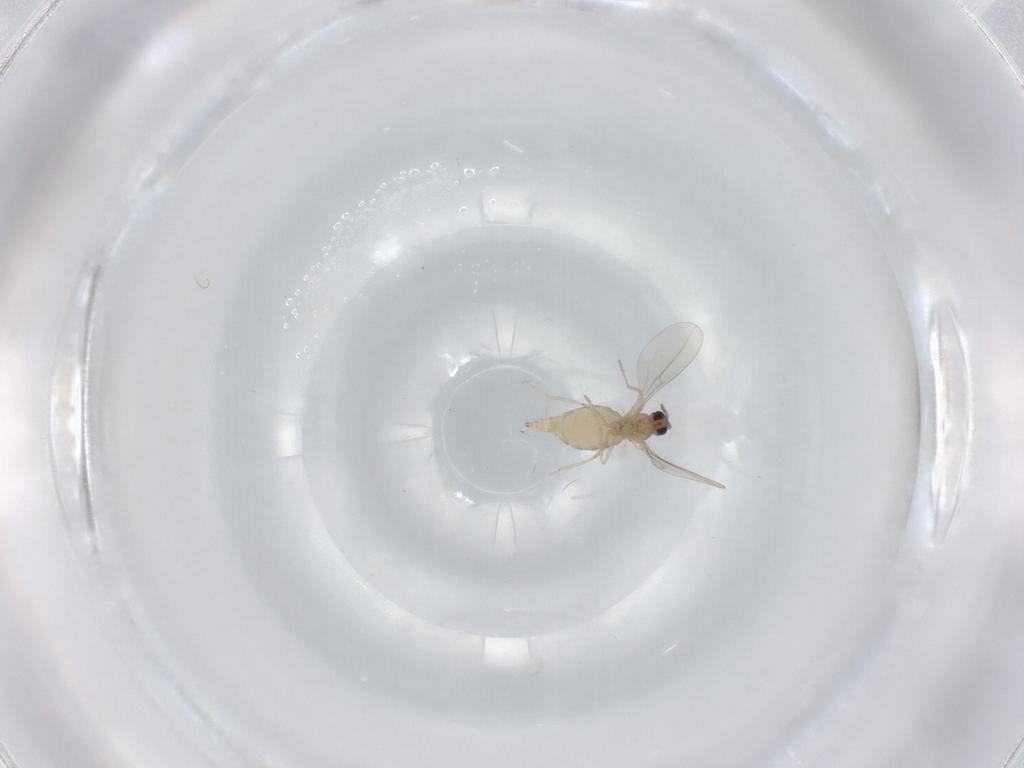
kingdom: Animalia
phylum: Arthropoda
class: Insecta
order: Diptera
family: Cecidomyiidae
